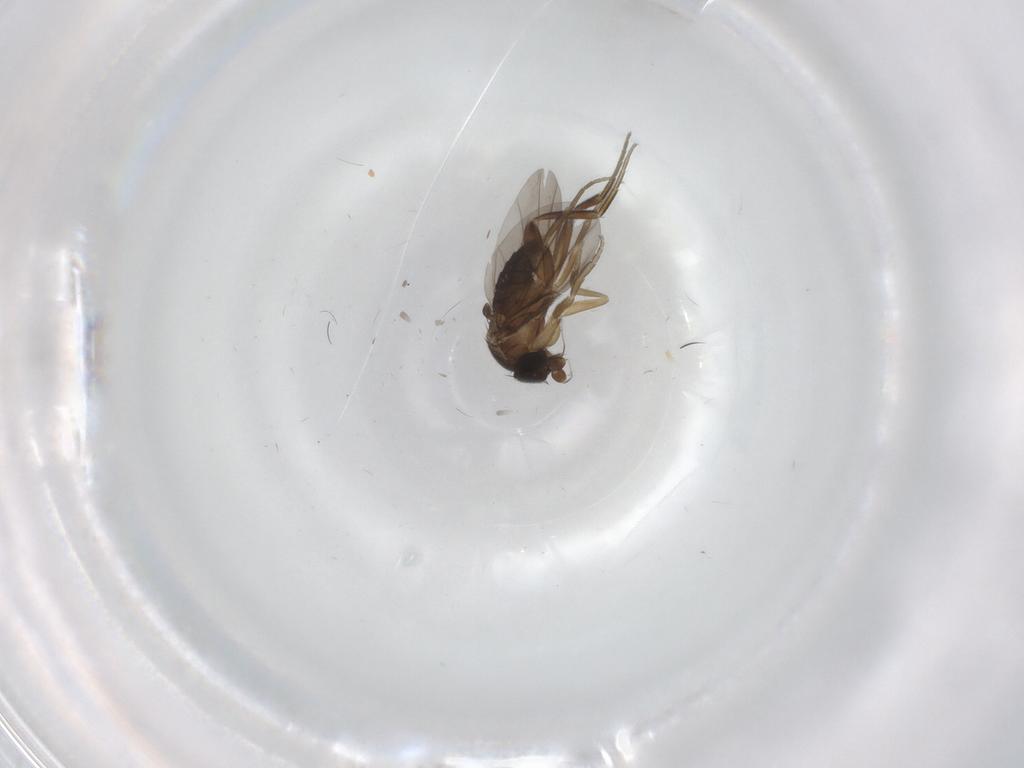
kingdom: Animalia
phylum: Arthropoda
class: Insecta
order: Diptera
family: Phoridae
